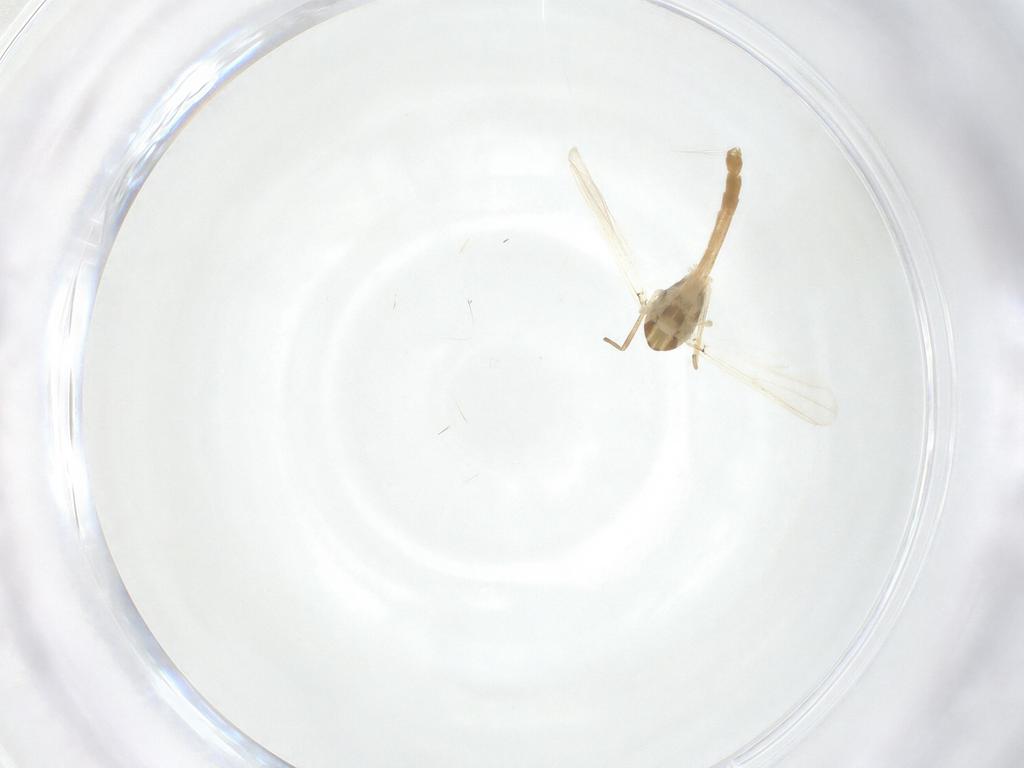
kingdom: Animalia
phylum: Arthropoda
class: Insecta
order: Diptera
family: Chironomidae
